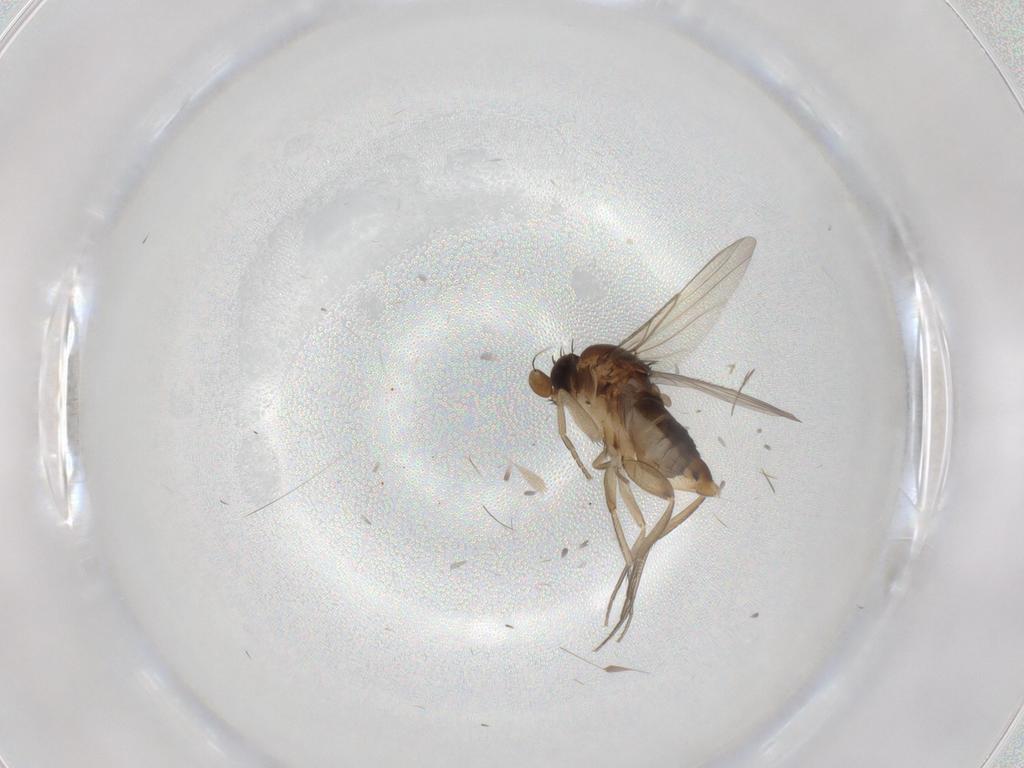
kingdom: Animalia
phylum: Arthropoda
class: Insecta
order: Diptera
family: Phoridae
